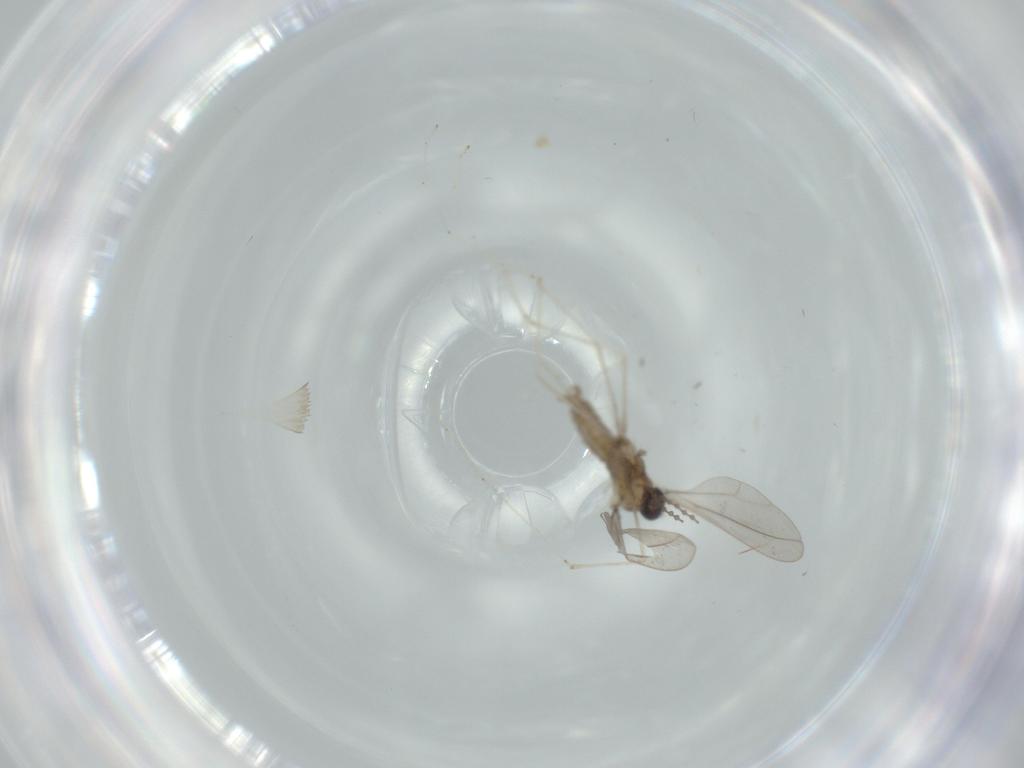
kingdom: Animalia
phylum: Arthropoda
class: Insecta
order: Diptera
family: Cecidomyiidae
